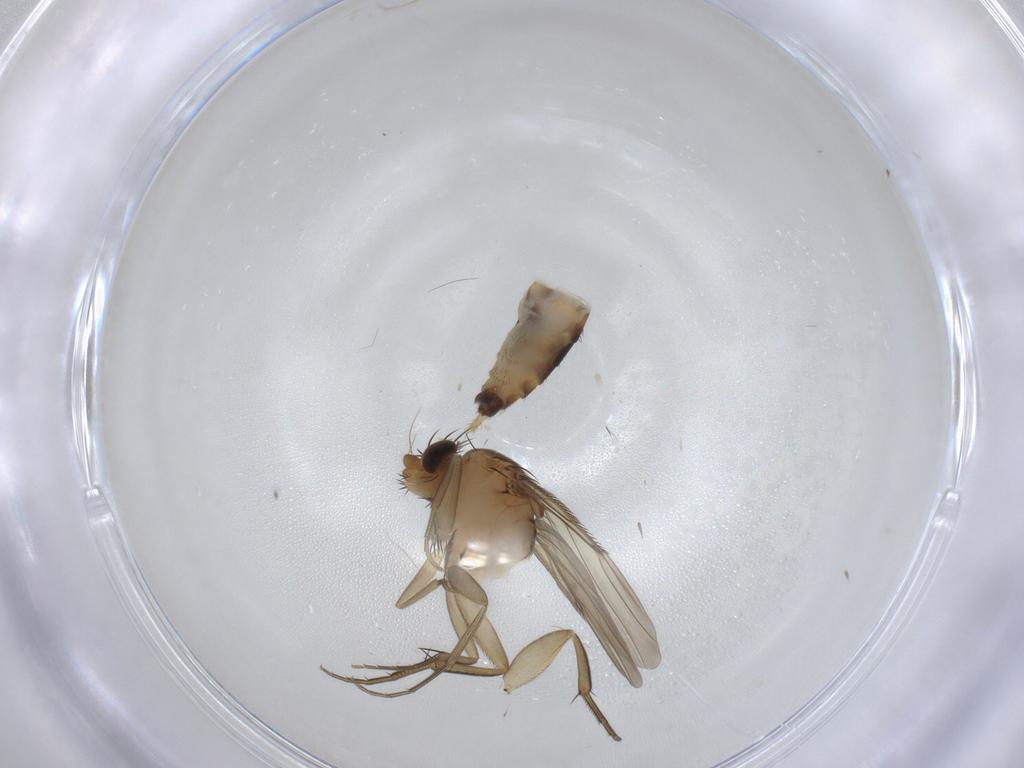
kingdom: Animalia
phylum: Arthropoda
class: Insecta
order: Diptera
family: Phoridae
